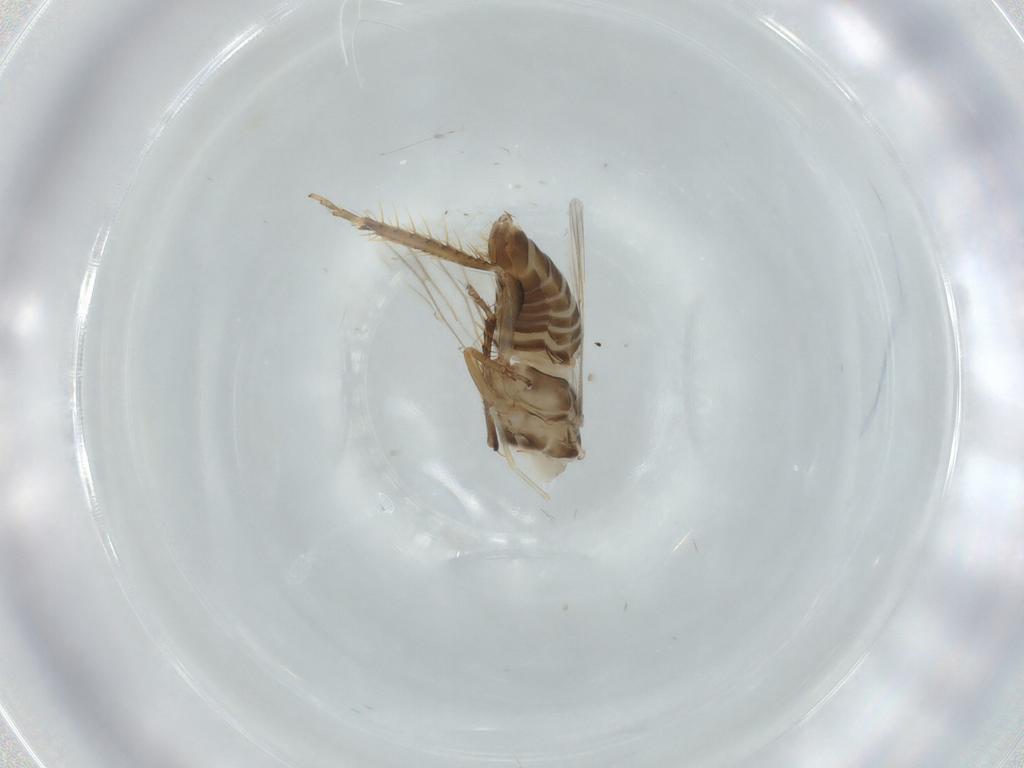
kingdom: Animalia
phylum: Arthropoda
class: Insecta
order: Hemiptera
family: Cicadellidae
